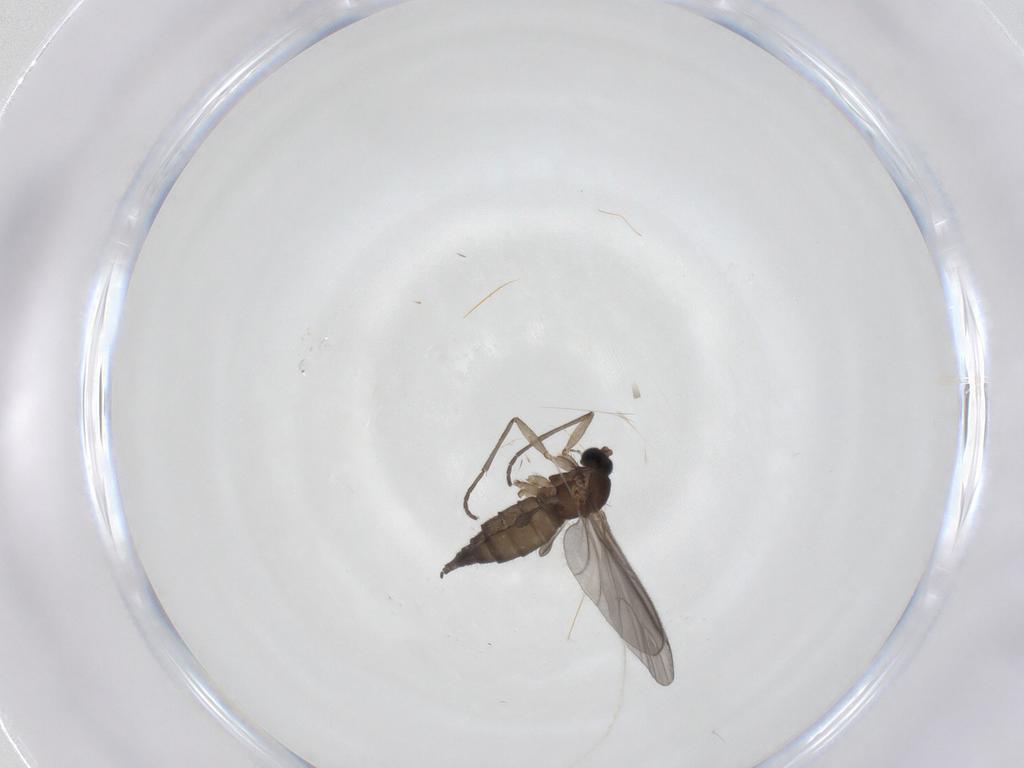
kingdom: Animalia
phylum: Arthropoda
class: Insecta
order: Diptera
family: Sciaridae
